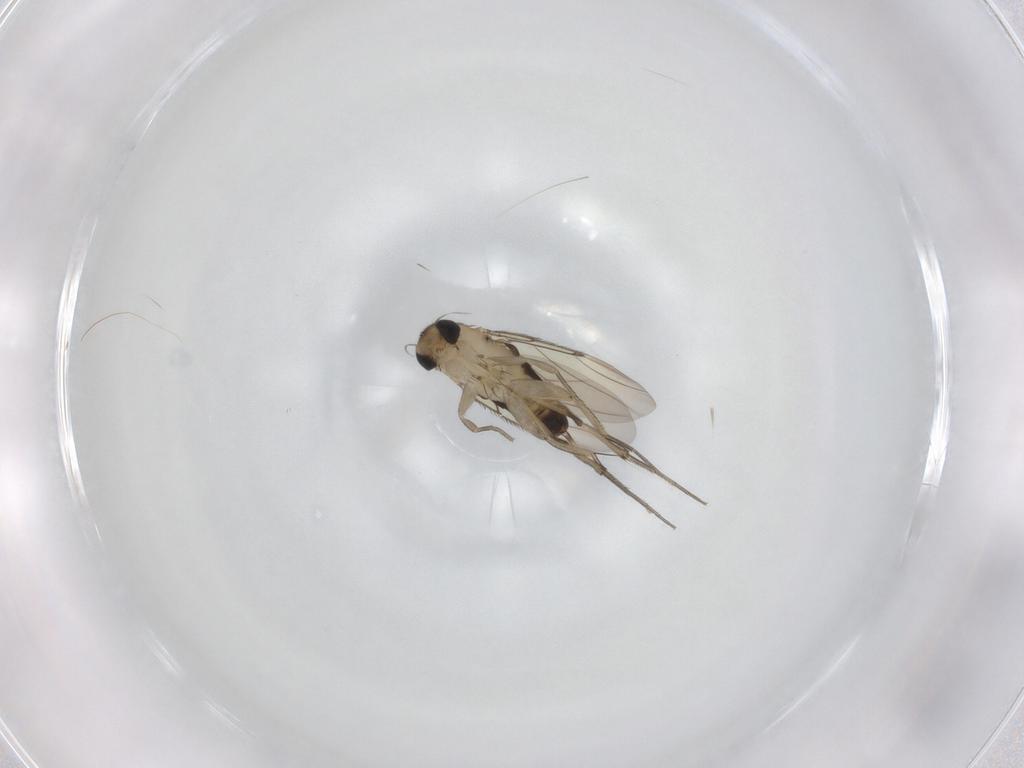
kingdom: Animalia
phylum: Arthropoda
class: Insecta
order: Diptera
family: Phoridae
